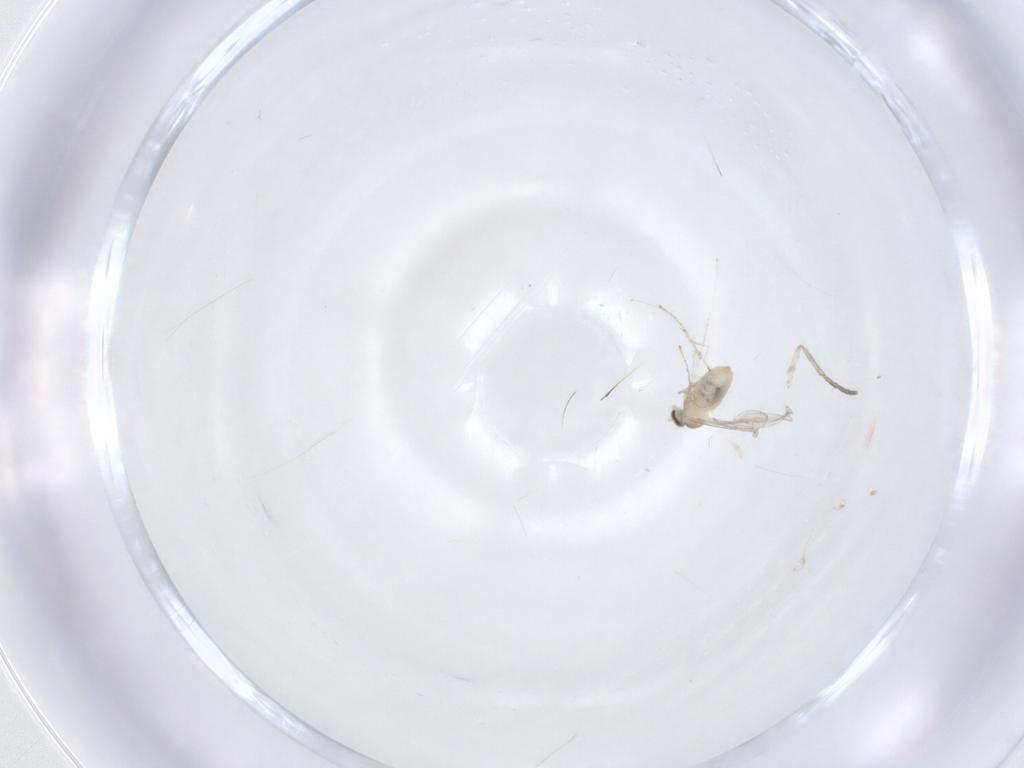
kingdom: Animalia
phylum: Arthropoda
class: Insecta
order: Diptera
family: Cecidomyiidae
